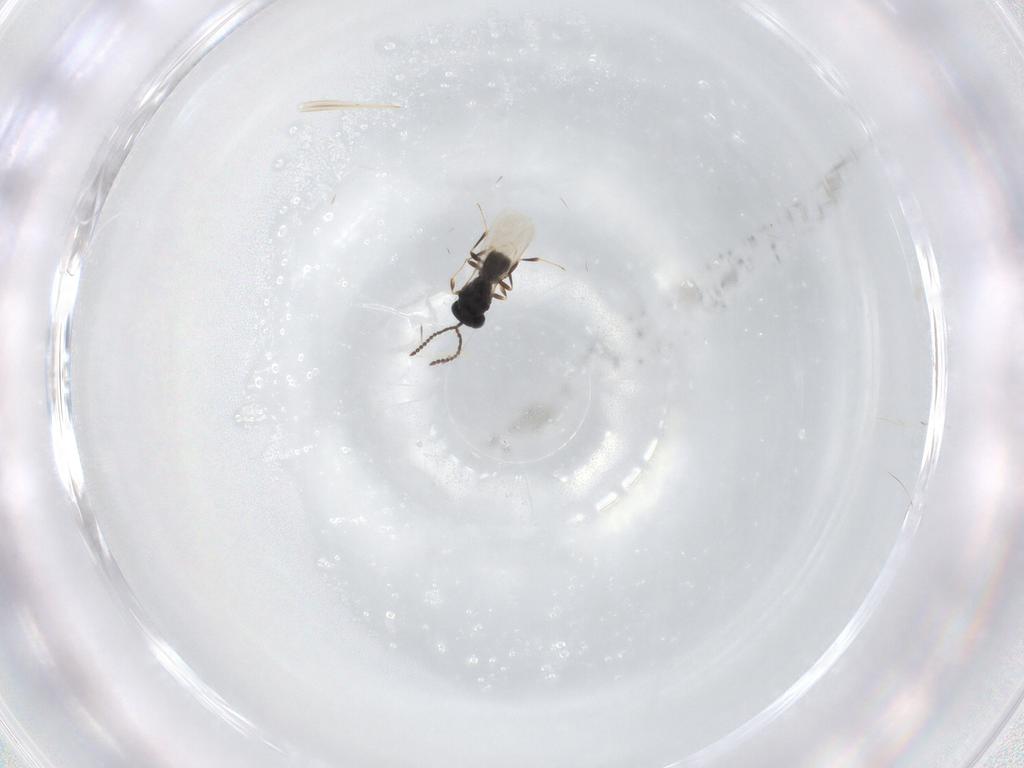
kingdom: Animalia
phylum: Arthropoda
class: Insecta
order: Hymenoptera
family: Scelionidae
